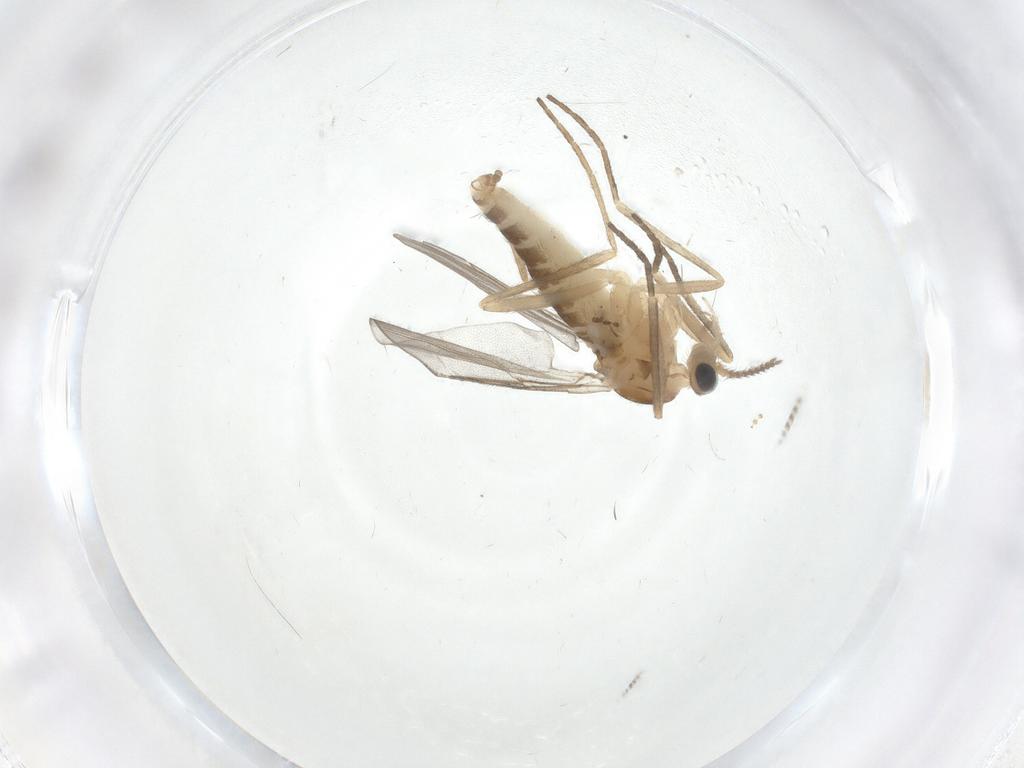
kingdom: Animalia
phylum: Arthropoda
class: Insecta
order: Diptera
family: Cecidomyiidae
